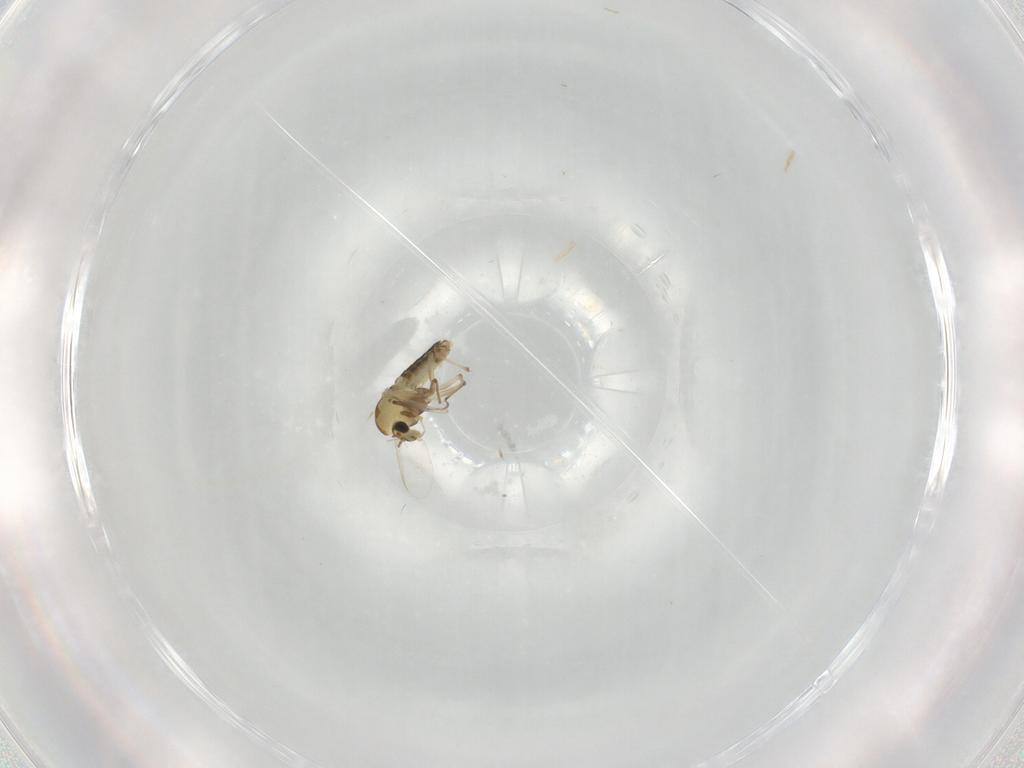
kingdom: Animalia
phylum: Arthropoda
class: Insecta
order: Diptera
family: Chironomidae
